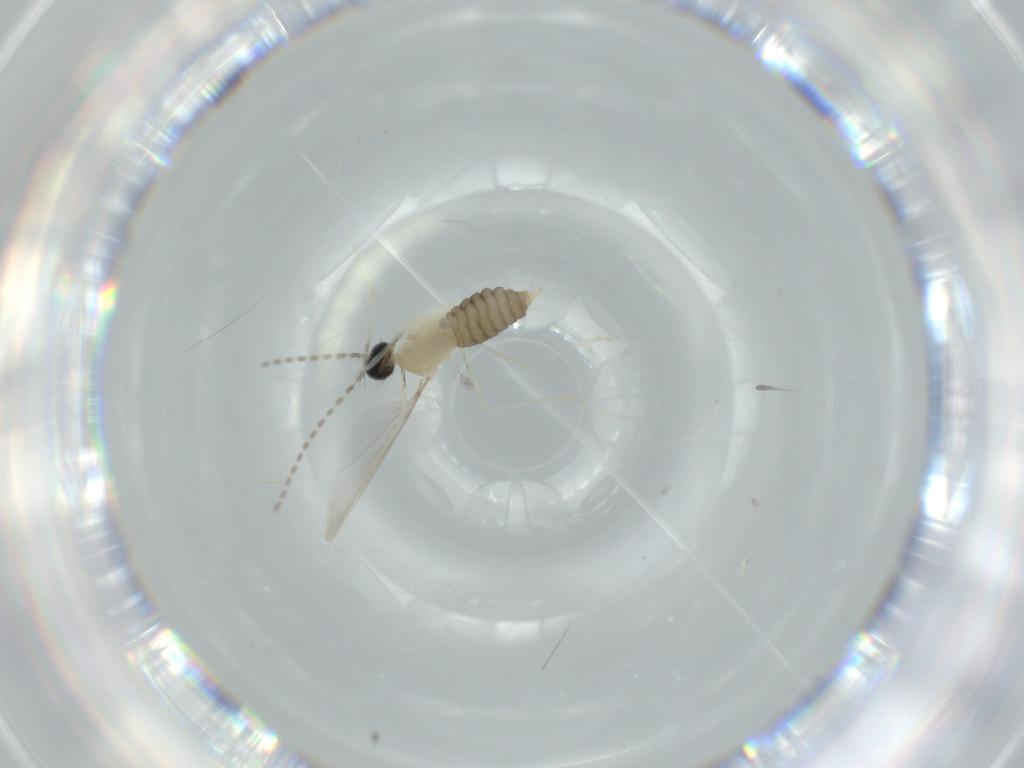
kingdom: Animalia
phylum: Arthropoda
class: Insecta
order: Diptera
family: Cecidomyiidae
